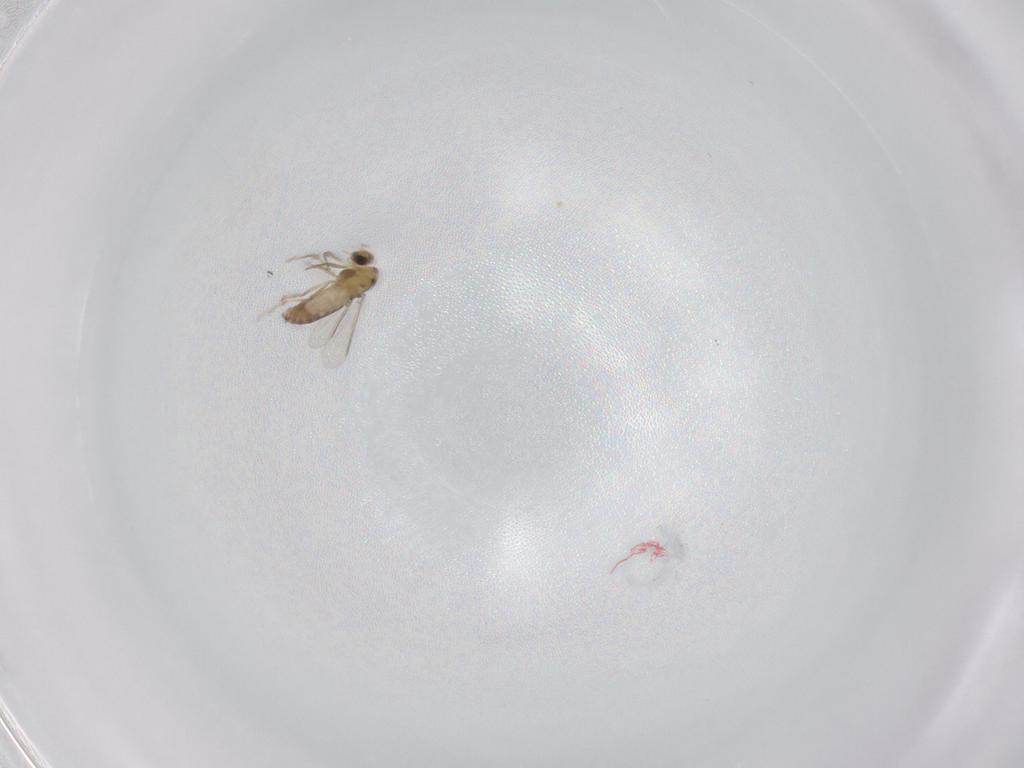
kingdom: Animalia
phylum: Arthropoda
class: Insecta
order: Diptera
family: Chironomidae
